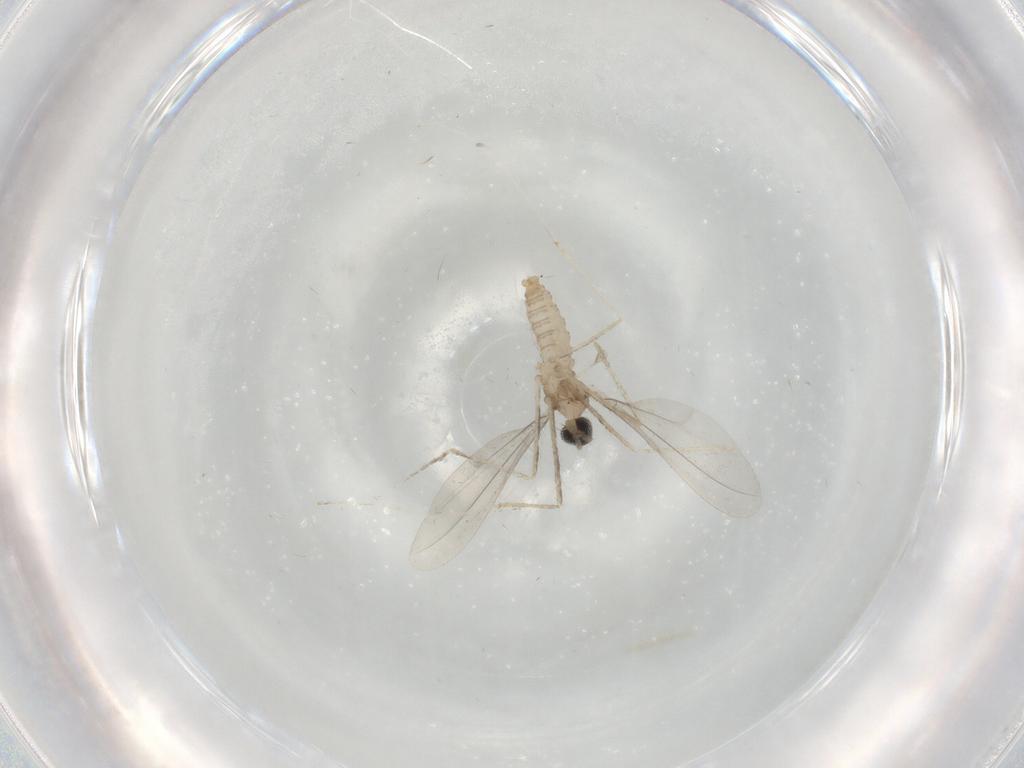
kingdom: Animalia
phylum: Arthropoda
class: Insecta
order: Diptera
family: Cecidomyiidae
